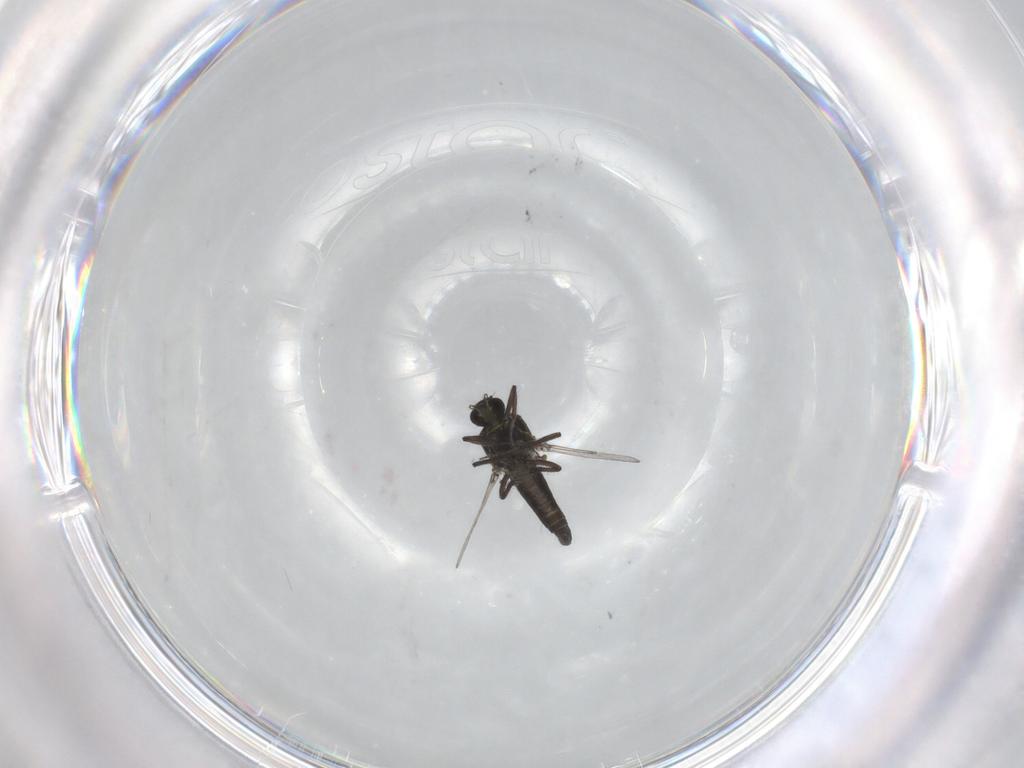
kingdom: Animalia
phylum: Arthropoda
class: Insecta
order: Diptera
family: Ceratopogonidae
